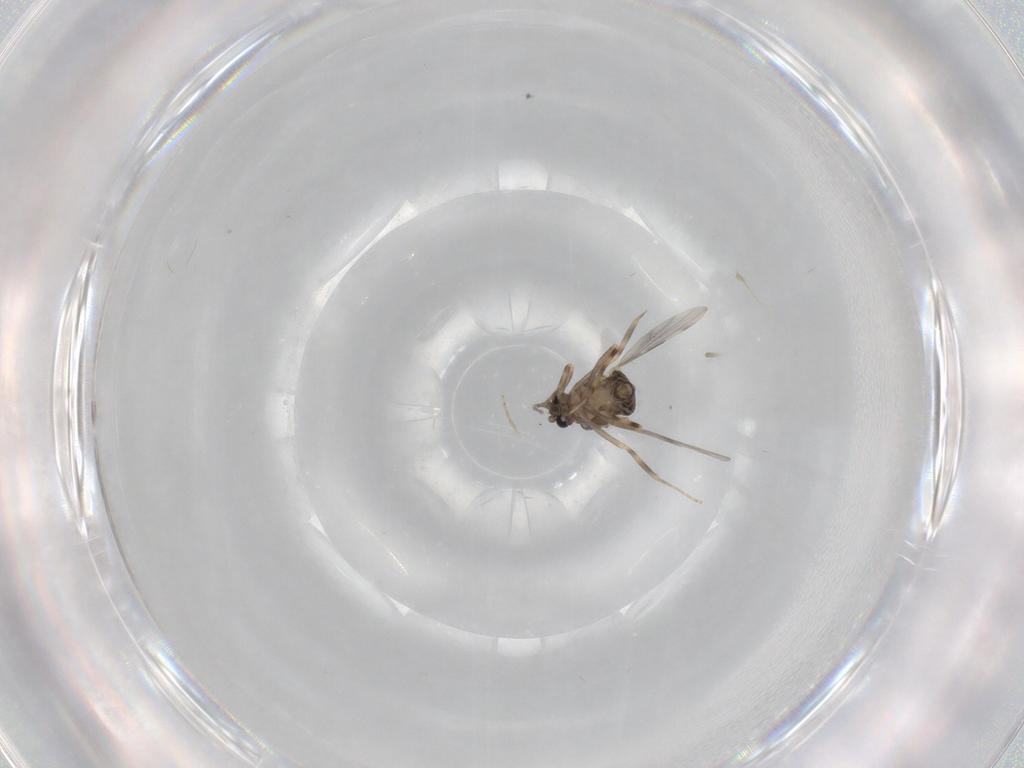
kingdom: Animalia
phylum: Arthropoda
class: Insecta
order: Diptera
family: Ceratopogonidae
